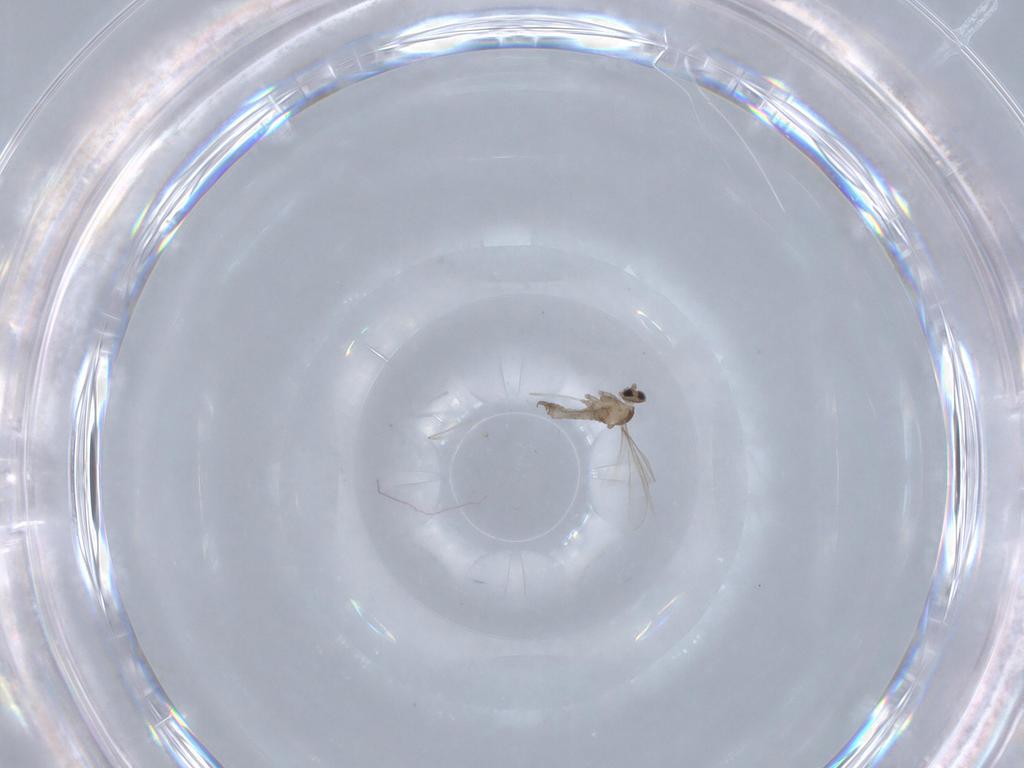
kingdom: Animalia
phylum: Arthropoda
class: Insecta
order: Diptera
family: Cecidomyiidae
